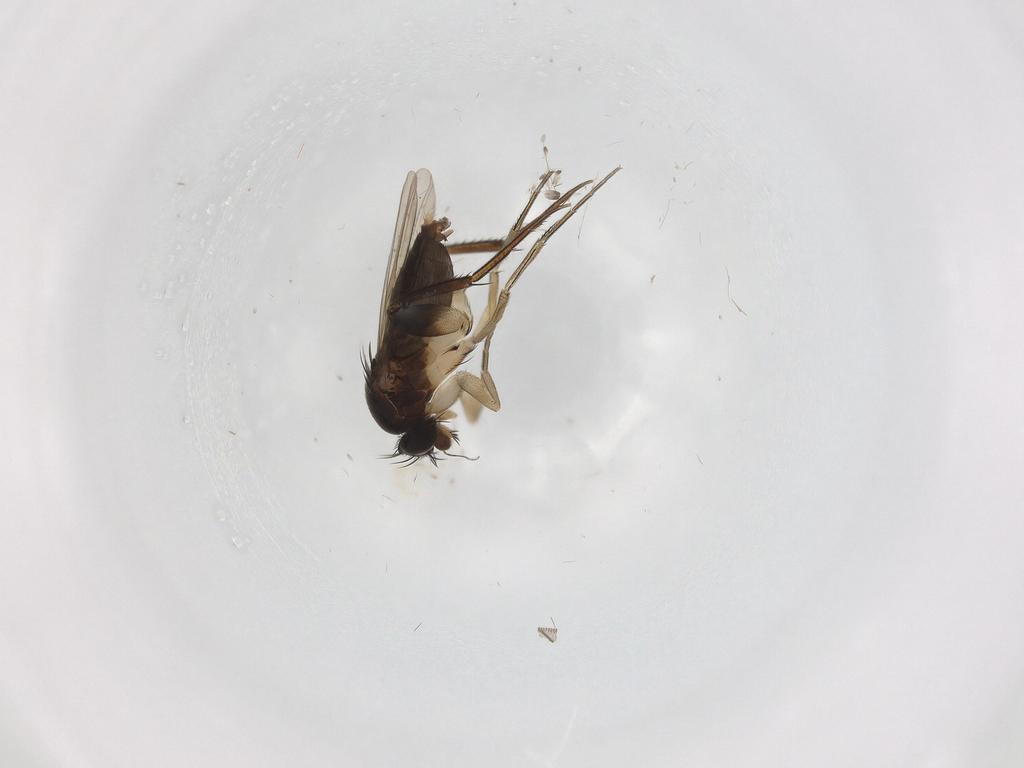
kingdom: Animalia
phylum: Arthropoda
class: Insecta
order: Diptera
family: Phoridae
